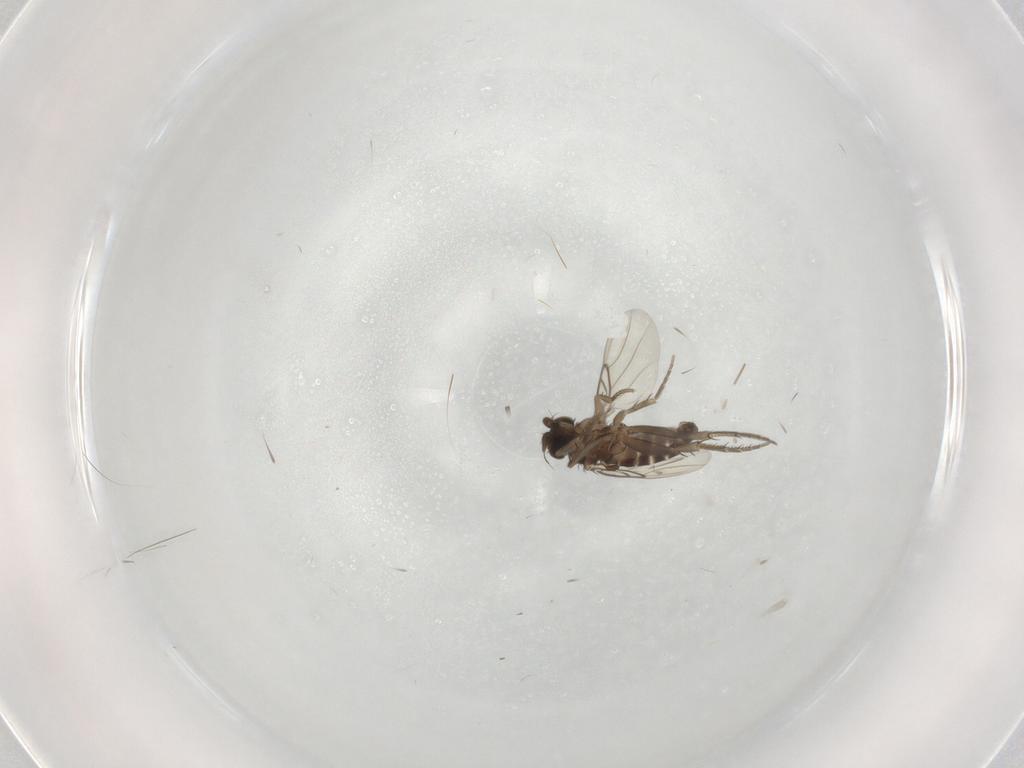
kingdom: Animalia
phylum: Arthropoda
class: Insecta
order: Diptera
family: Phoridae
